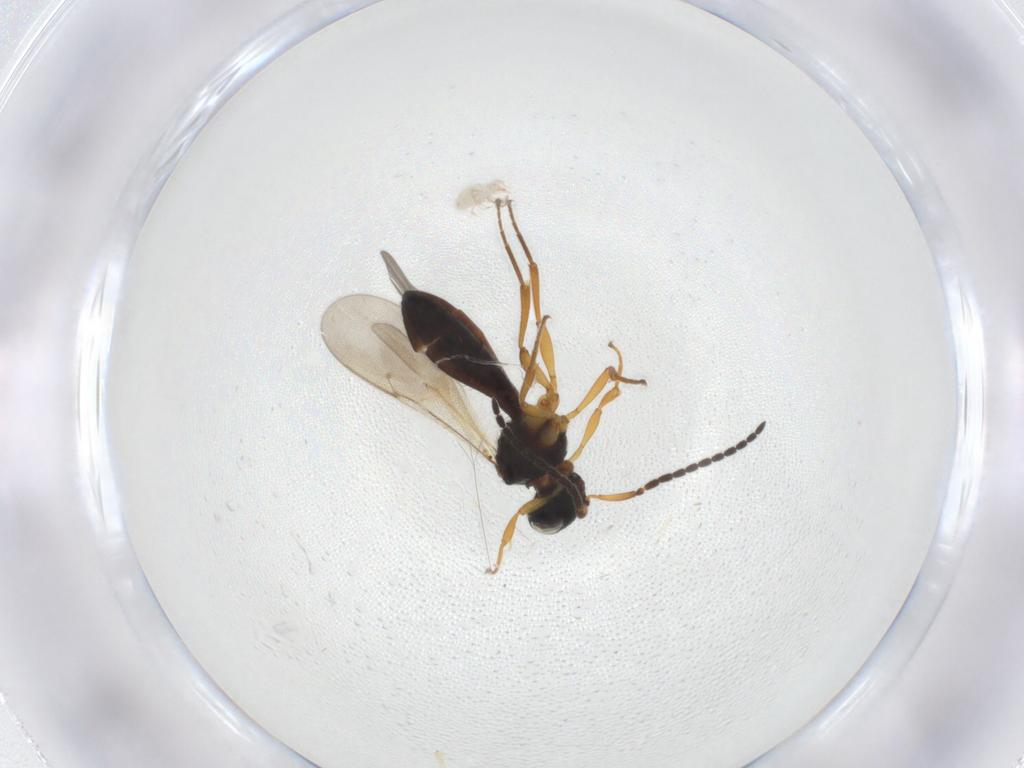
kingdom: Animalia
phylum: Arthropoda
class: Insecta
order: Hymenoptera
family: Scelionidae
